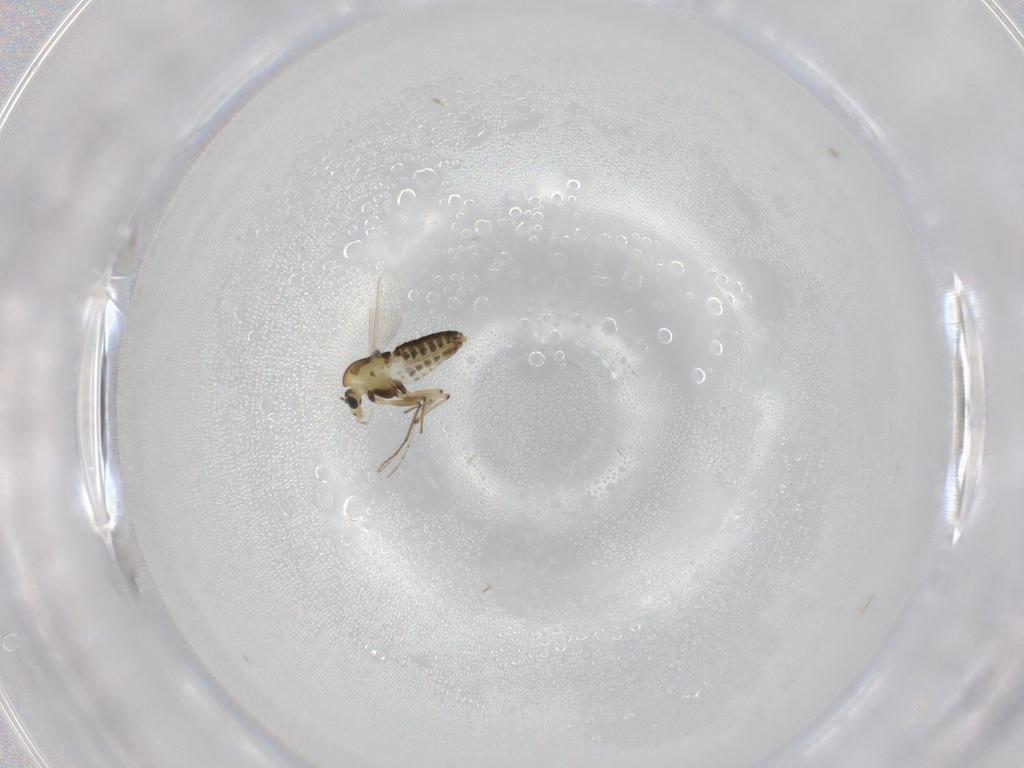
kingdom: Animalia
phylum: Arthropoda
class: Insecta
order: Diptera
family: Chironomidae
